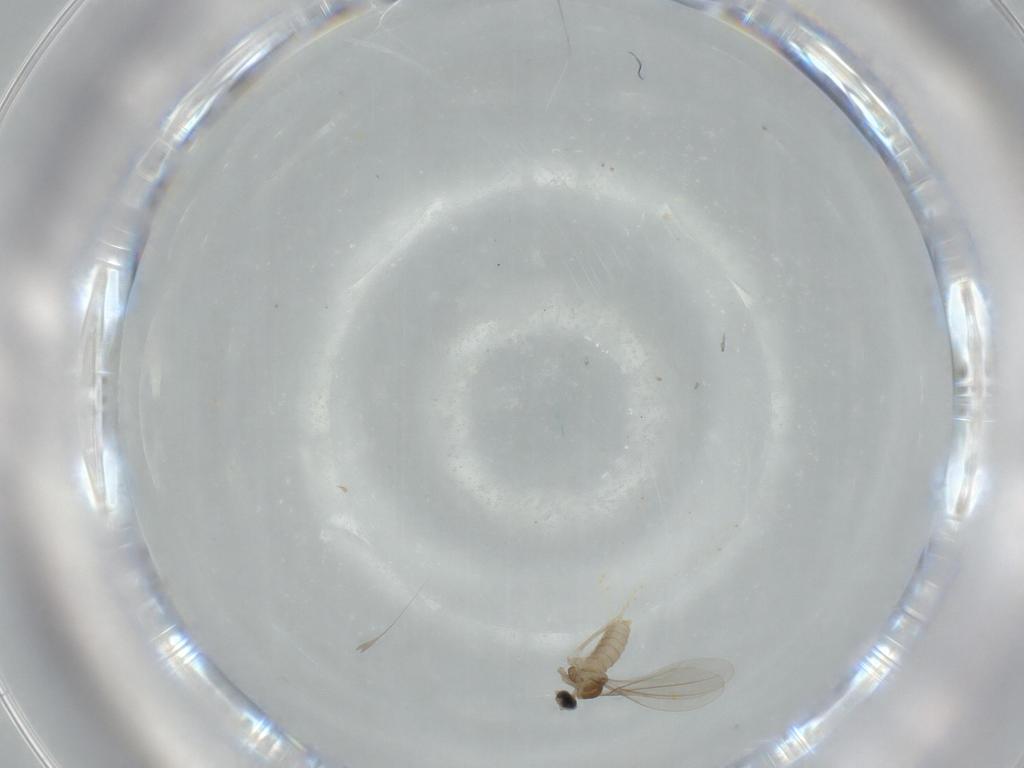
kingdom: Animalia
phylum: Arthropoda
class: Insecta
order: Diptera
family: Cecidomyiidae
